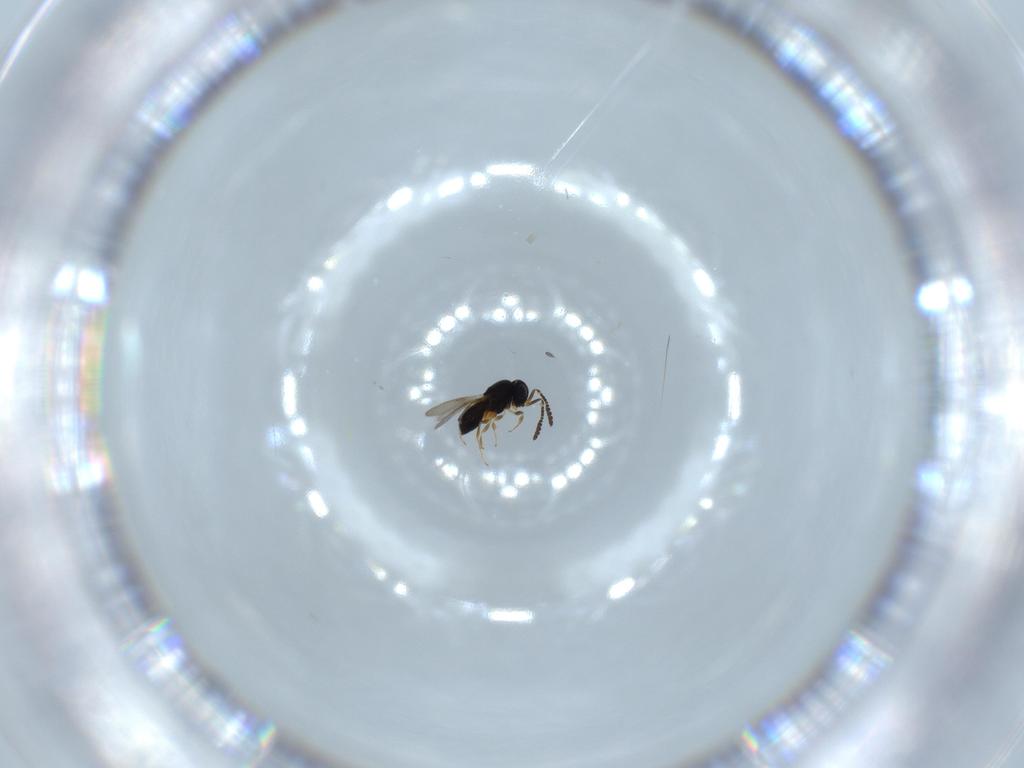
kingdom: Animalia
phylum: Arthropoda
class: Insecta
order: Hymenoptera
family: Scelionidae
